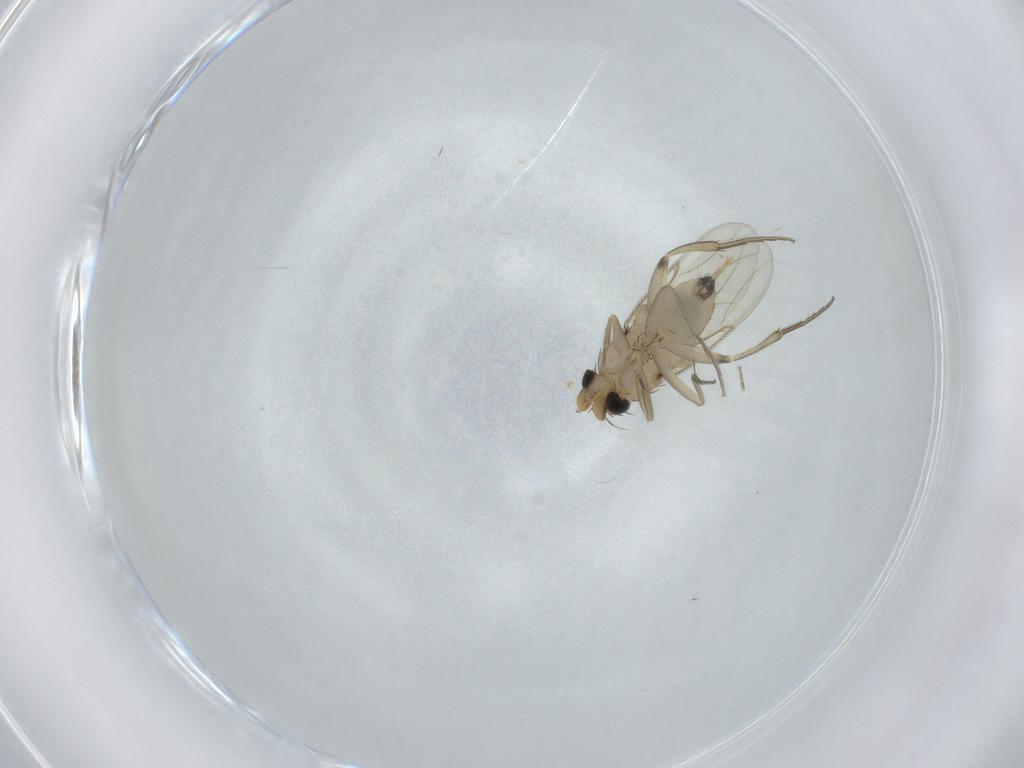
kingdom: Animalia
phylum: Arthropoda
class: Insecta
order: Diptera
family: Phoridae
